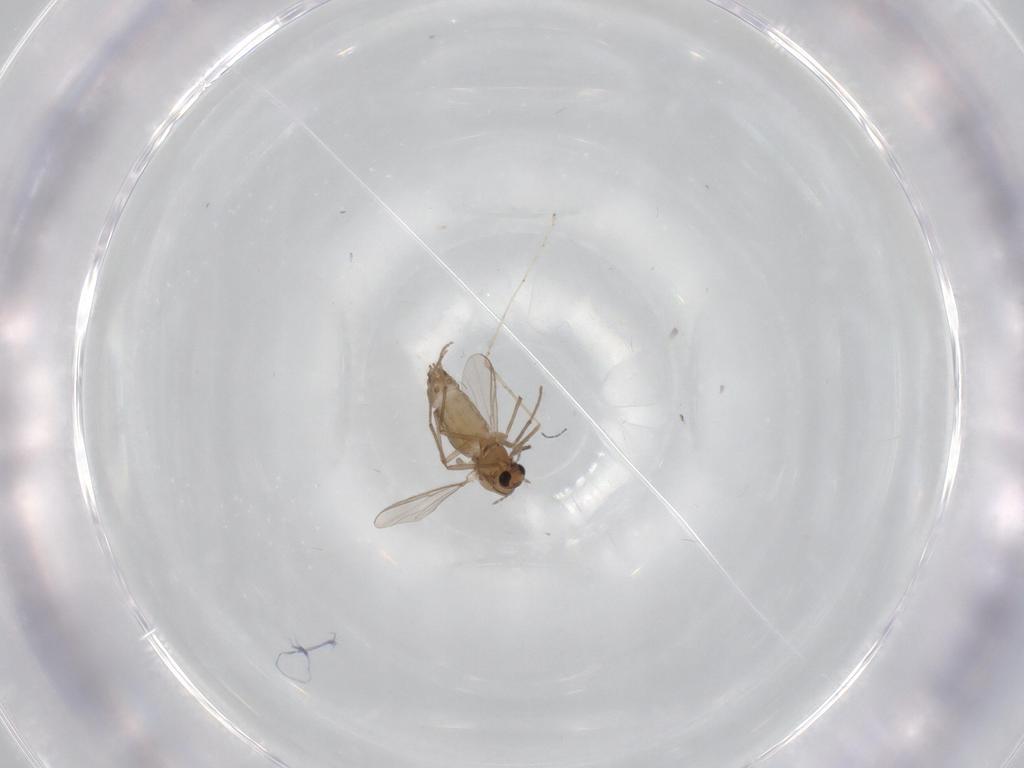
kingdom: Animalia
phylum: Arthropoda
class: Insecta
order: Diptera
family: Chironomidae
